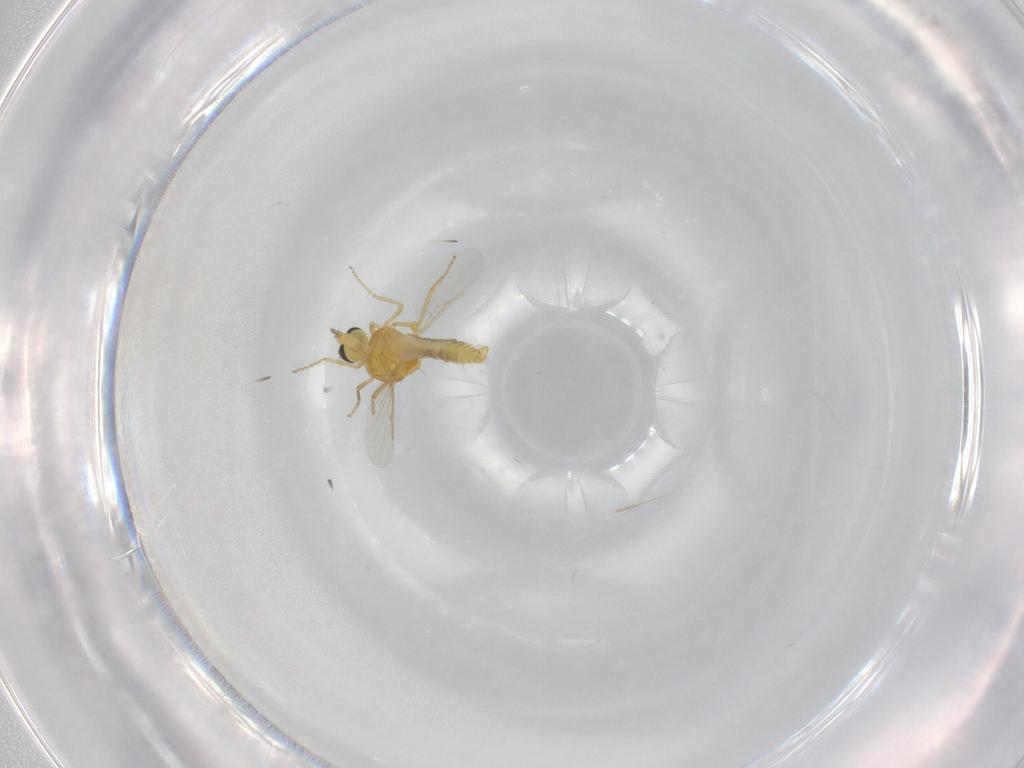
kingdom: Animalia
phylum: Arthropoda
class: Insecta
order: Diptera
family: Ceratopogonidae
